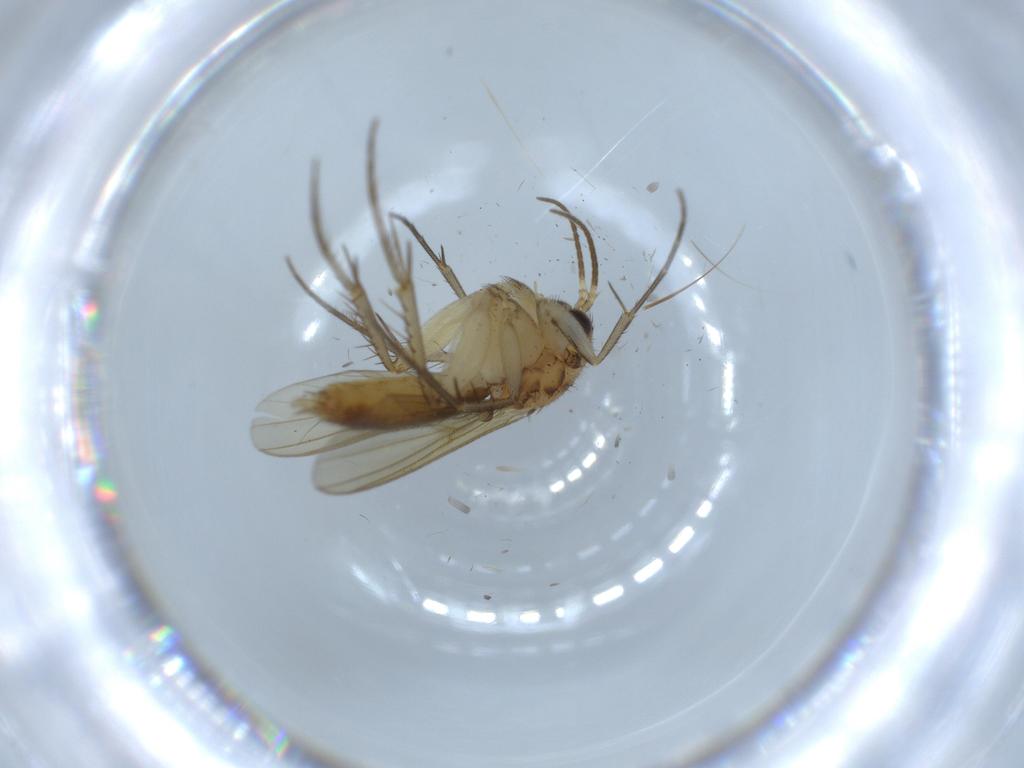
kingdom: Animalia
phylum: Arthropoda
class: Insecta
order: Diptera
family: Mycetophilidae
